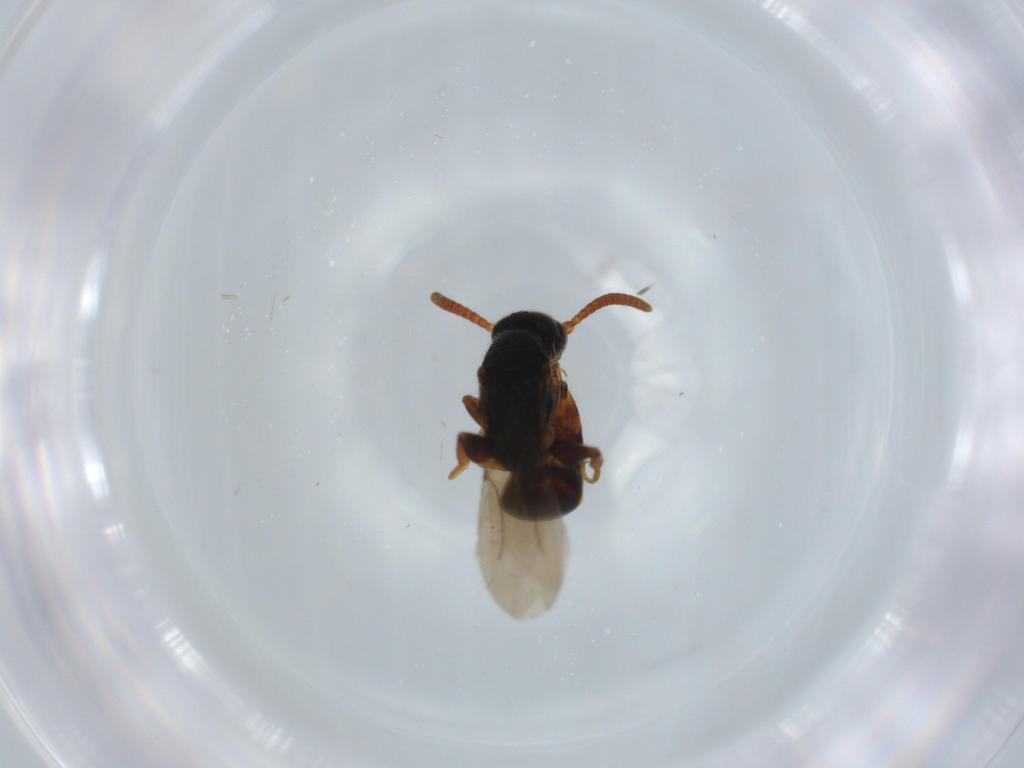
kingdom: Animalia
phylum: Arthropoda
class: Insecta
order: Hymenoptera
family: Bethylidae
